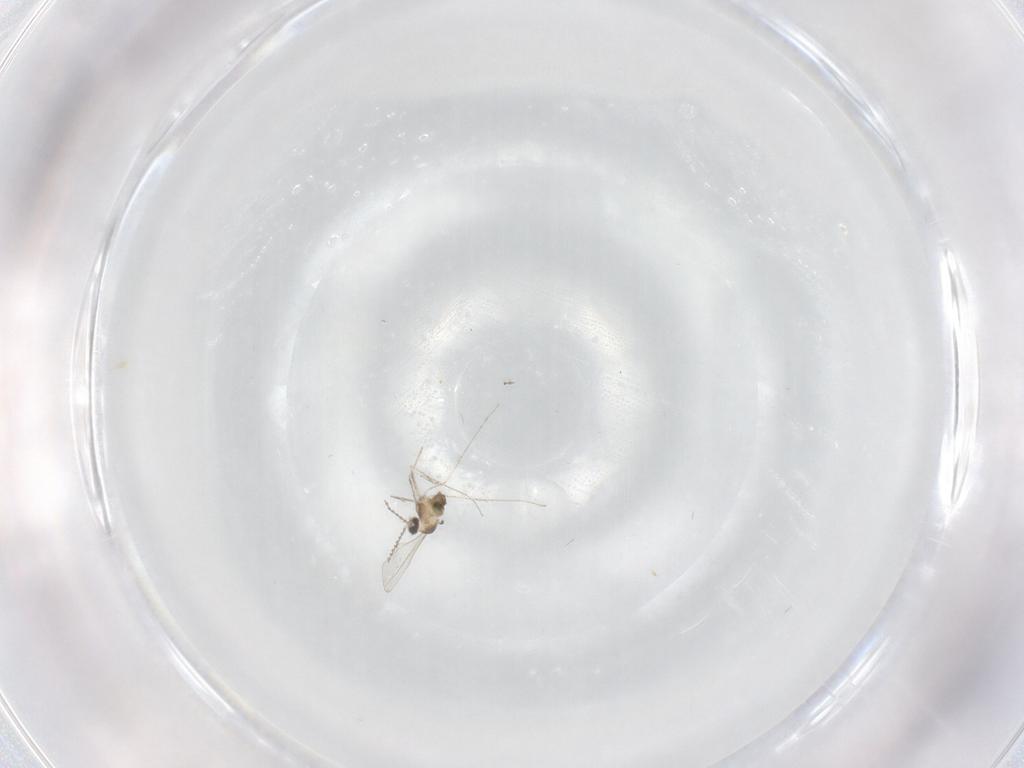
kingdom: Animalia
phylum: Arthropoda
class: Insecta
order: Diptera
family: Cecidomyiidae
